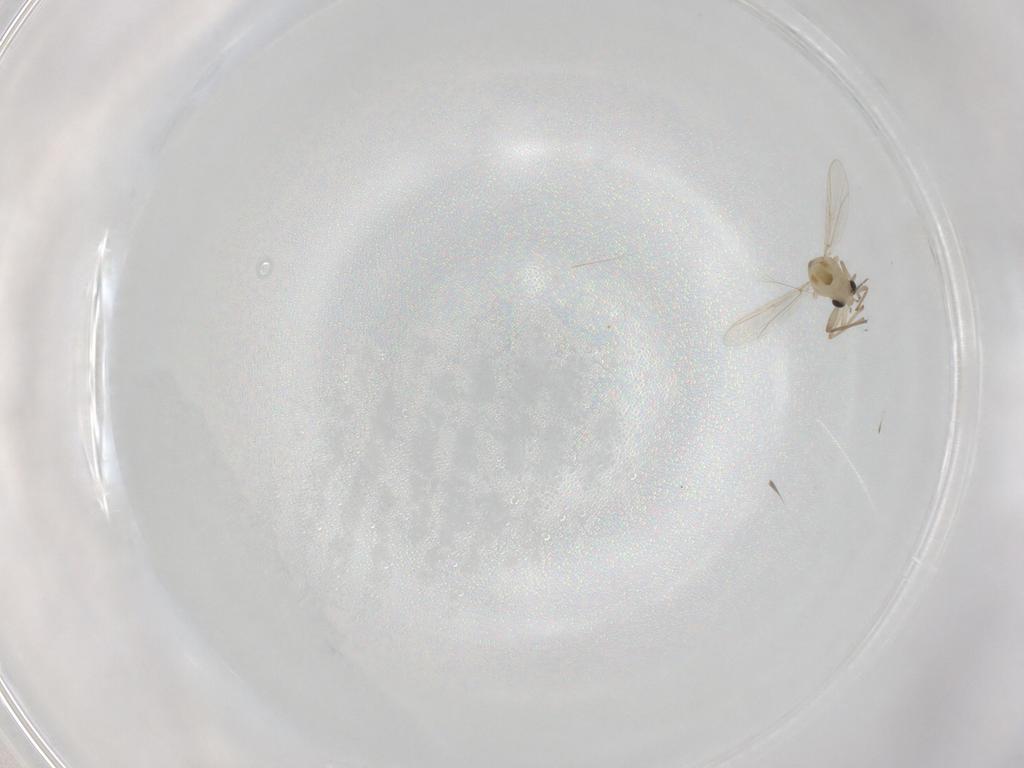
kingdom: Animalia
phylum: Arthropoda
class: Insecta
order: Diptera
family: Chironomidae
